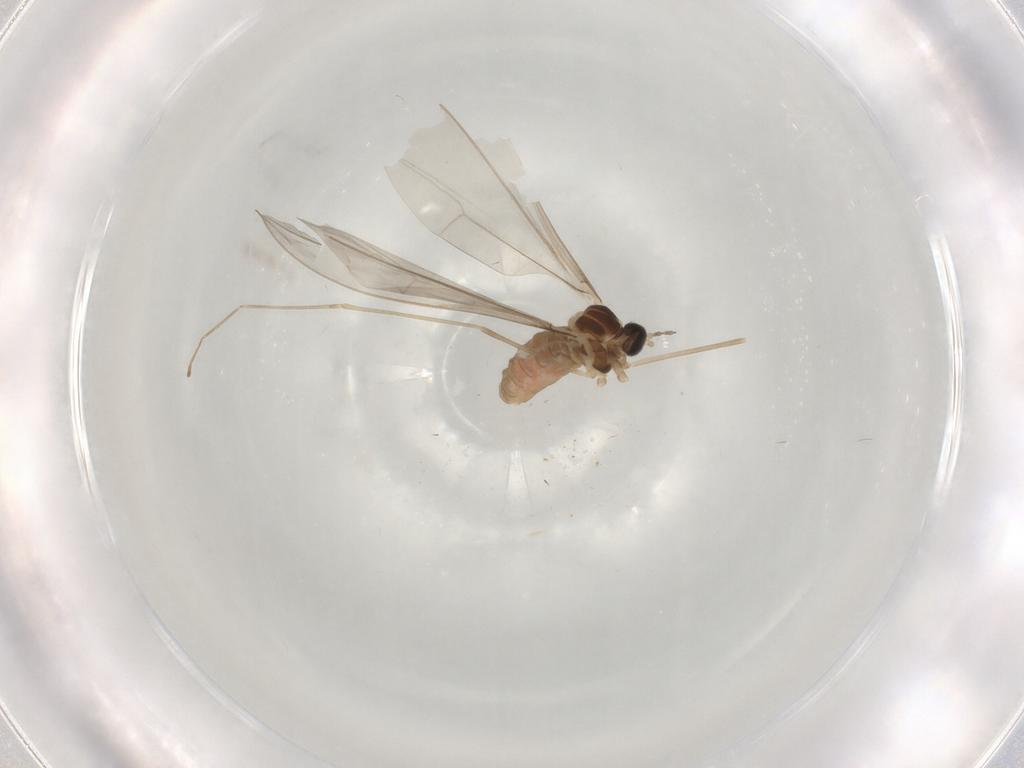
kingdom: Animalia
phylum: Arthropoda
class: Insecta
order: Diptera
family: Cecidomyiidae
